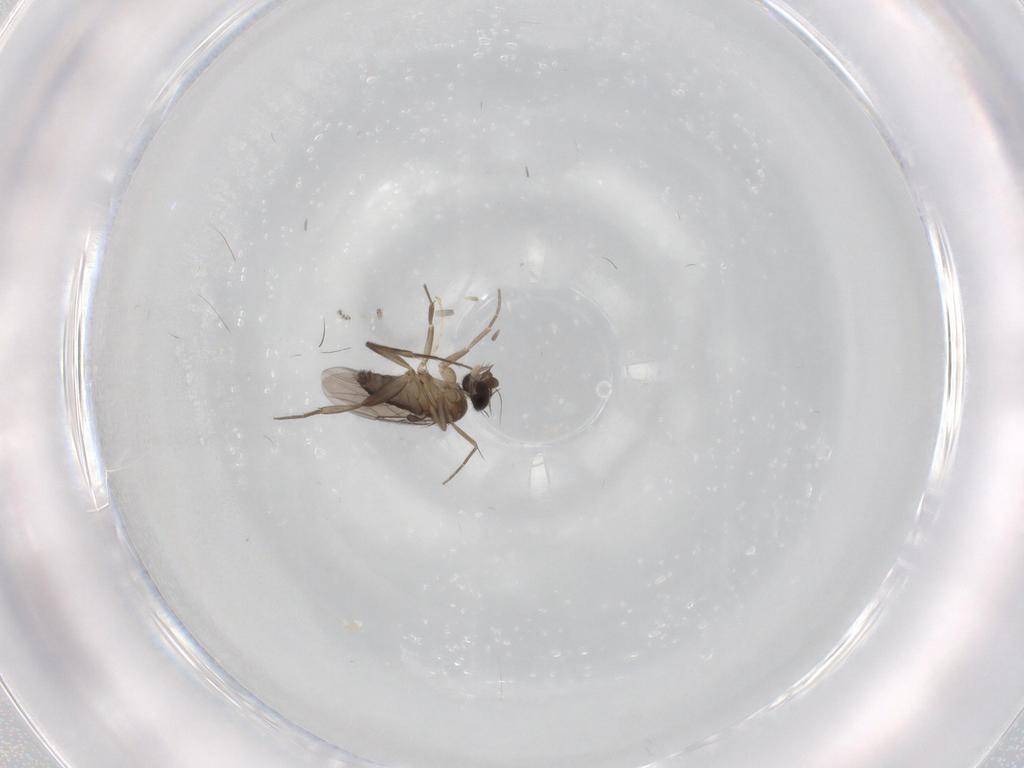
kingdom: Animalia
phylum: Arthropoda
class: Insecta
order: Diptera
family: Phoridae
